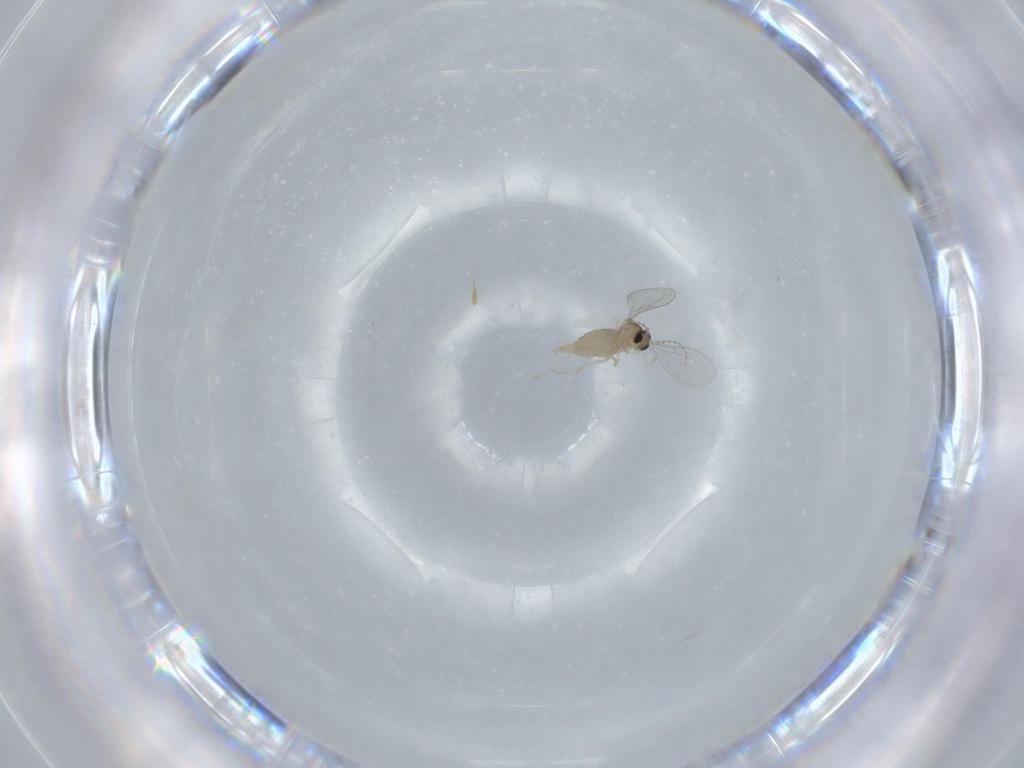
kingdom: Animalia
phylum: Arthropoda
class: Insecta
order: Diptera
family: Cecidomyiidae
